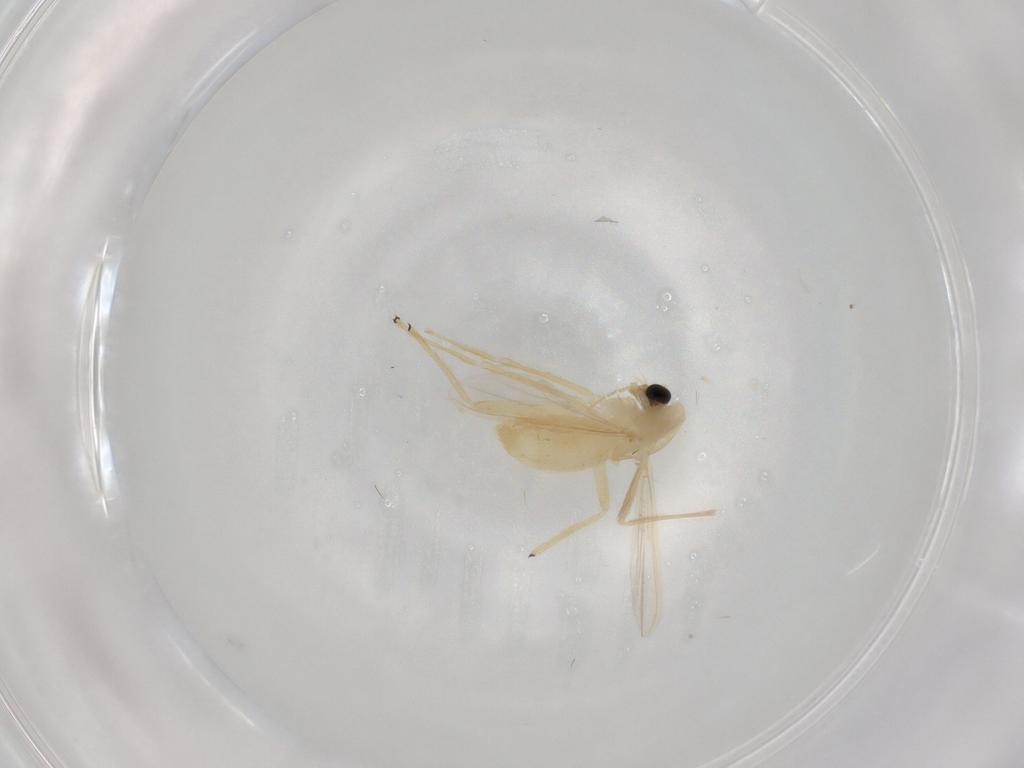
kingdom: Animalia
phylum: Arthropoda
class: Insecta
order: Diptera
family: Chironomidae
